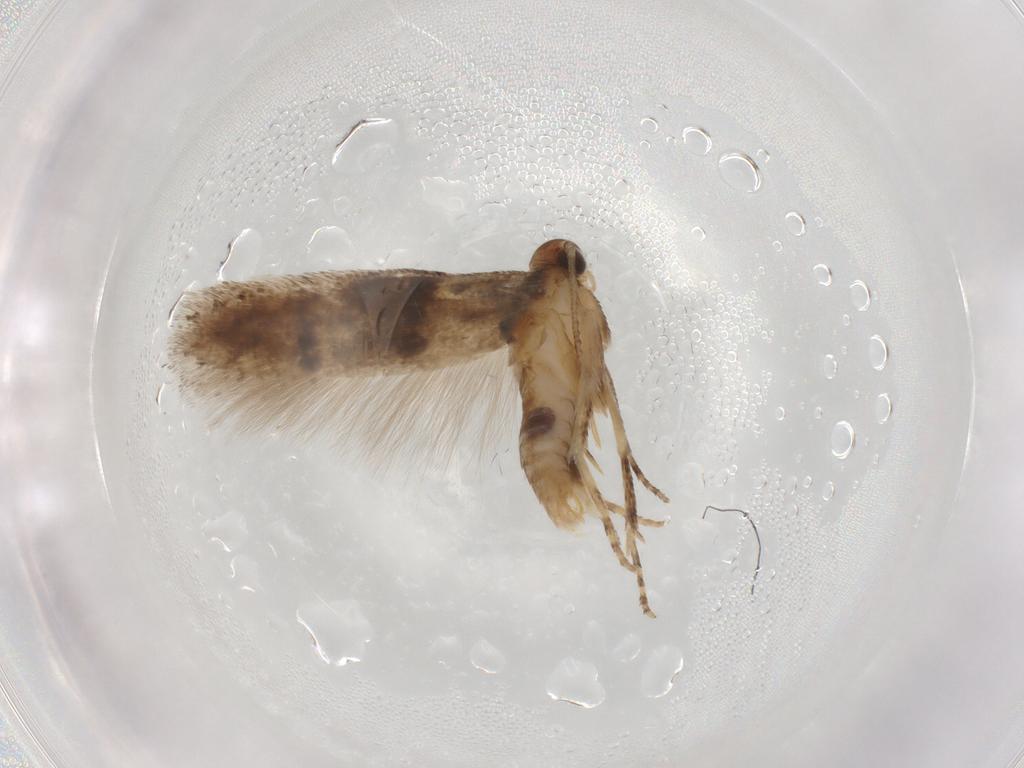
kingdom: Animalia
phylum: Arthropoda
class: Insecta
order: Lepidoptera
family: Gelechiidae
